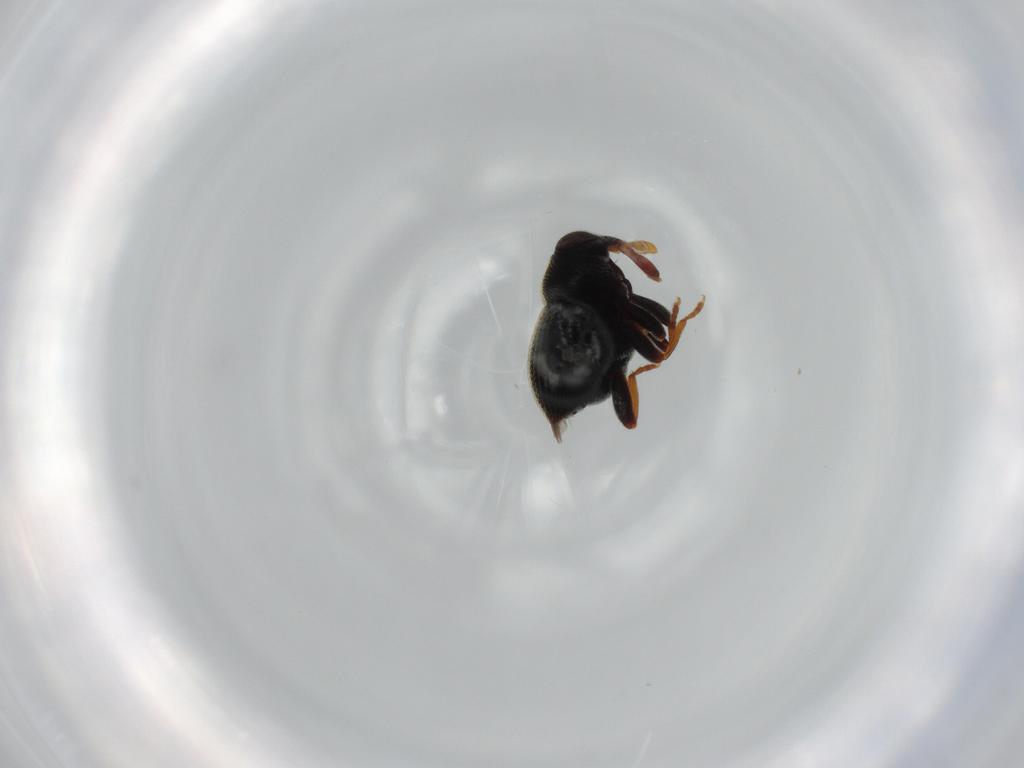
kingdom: Animalia
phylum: Arthropoda
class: Insecta
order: Coleoptera
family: Curculionidae
